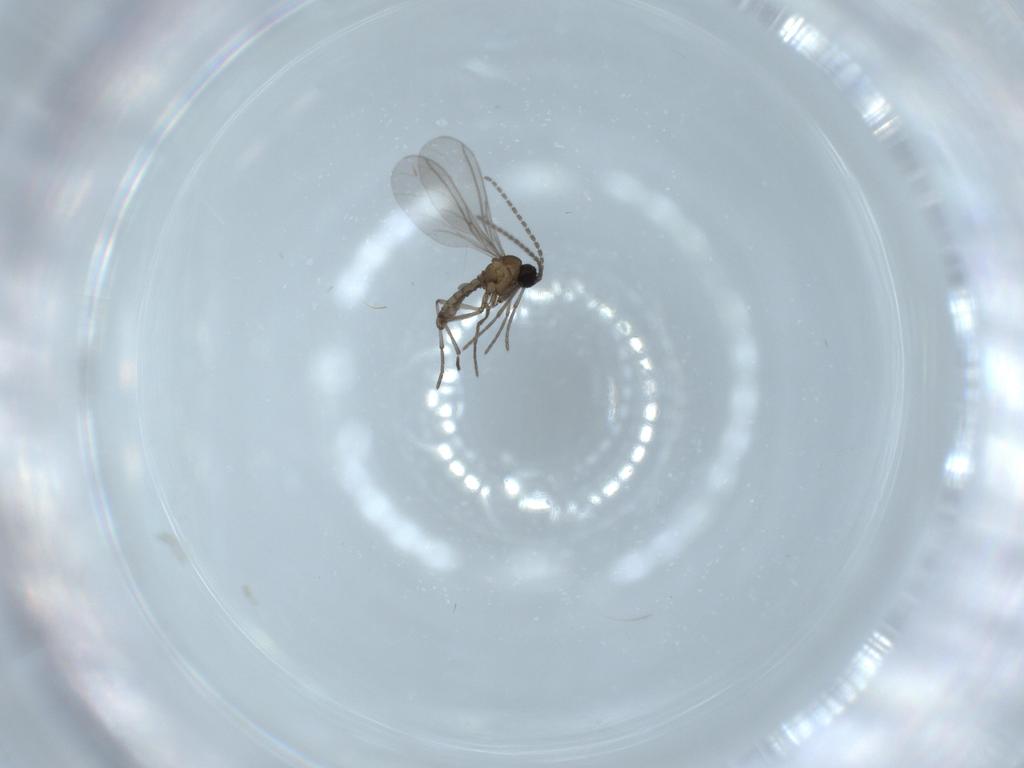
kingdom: Animalia
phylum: Arthropoda
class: Insecta
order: Diptera
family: Sciaridae
